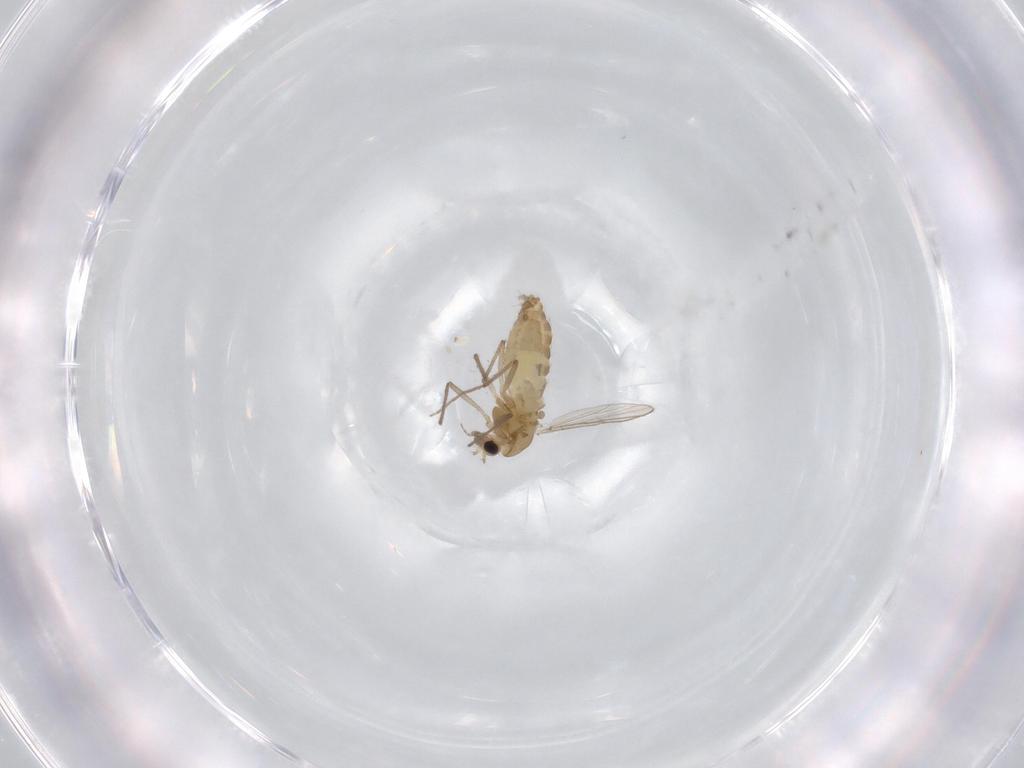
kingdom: Animalia
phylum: Arthropoda
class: Insecta
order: Diptera
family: Chironomidae
